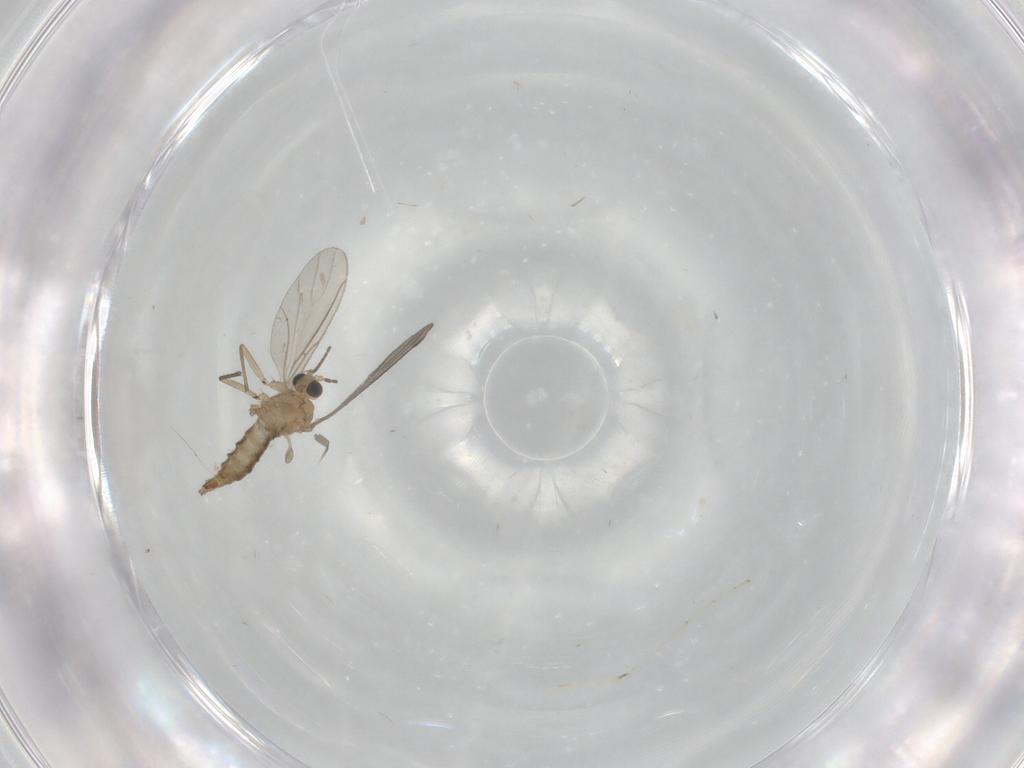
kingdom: Animalia
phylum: Arthropoda
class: Insecta
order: Diptera
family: Sciaridae
